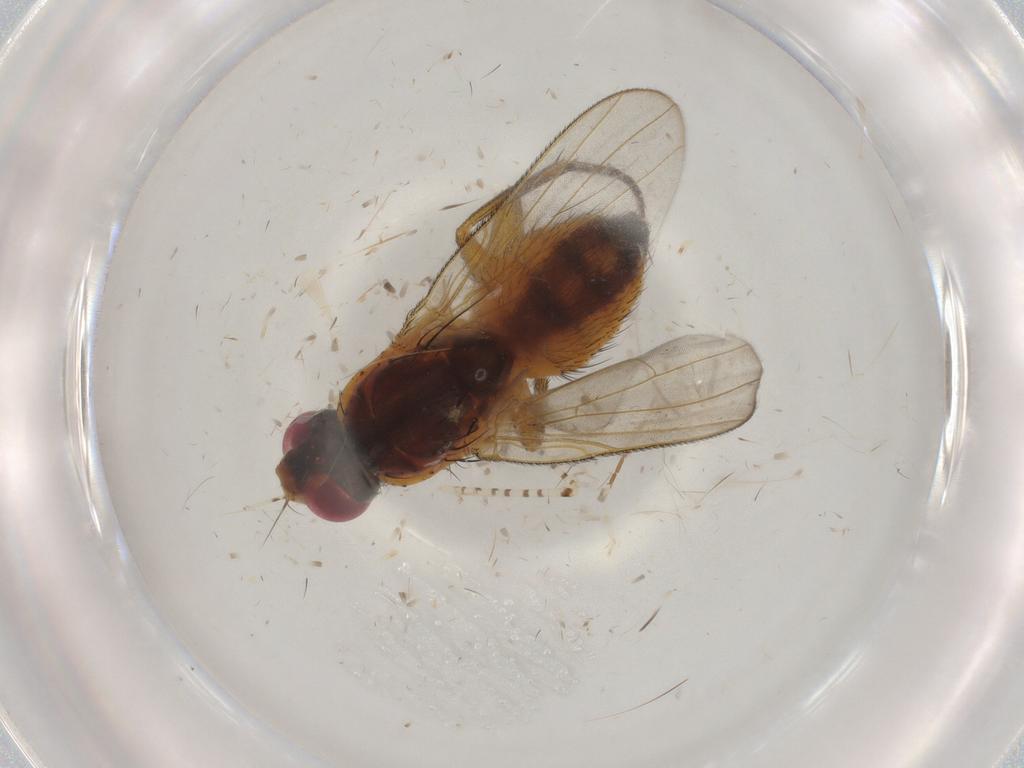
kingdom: Animalia
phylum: Arthropoda
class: Insecta
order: Diptera
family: Muscidae
